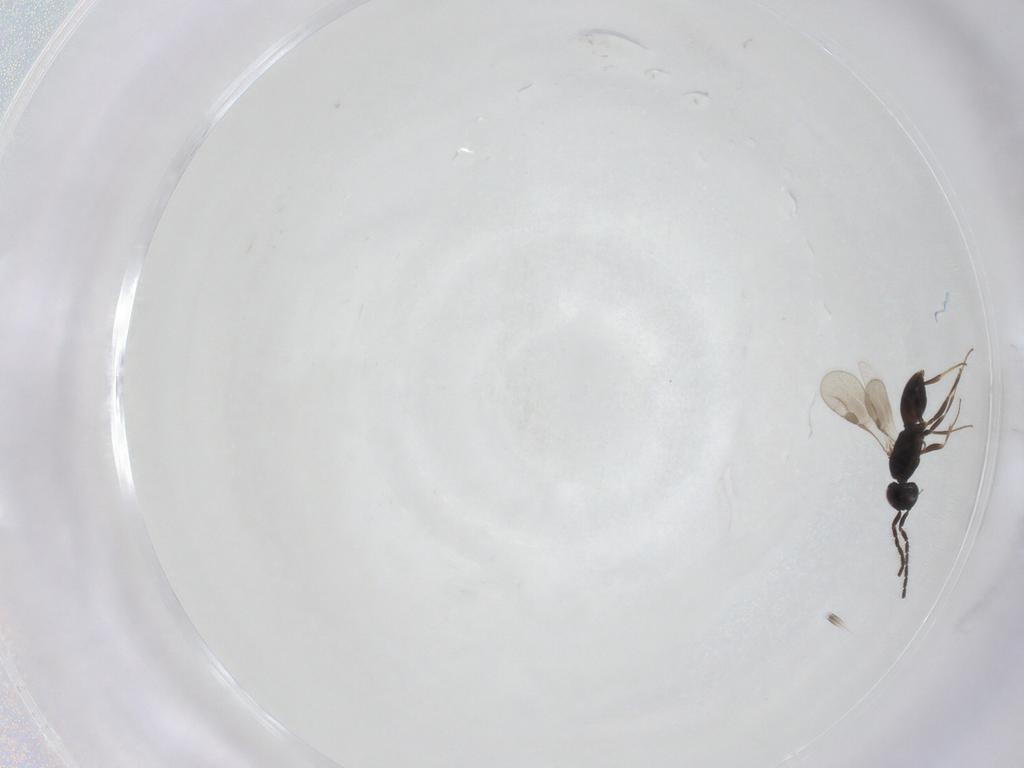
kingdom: Animalia
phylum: Arthropoda
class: Insecta
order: Hymenoptera
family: Megaspilidae
